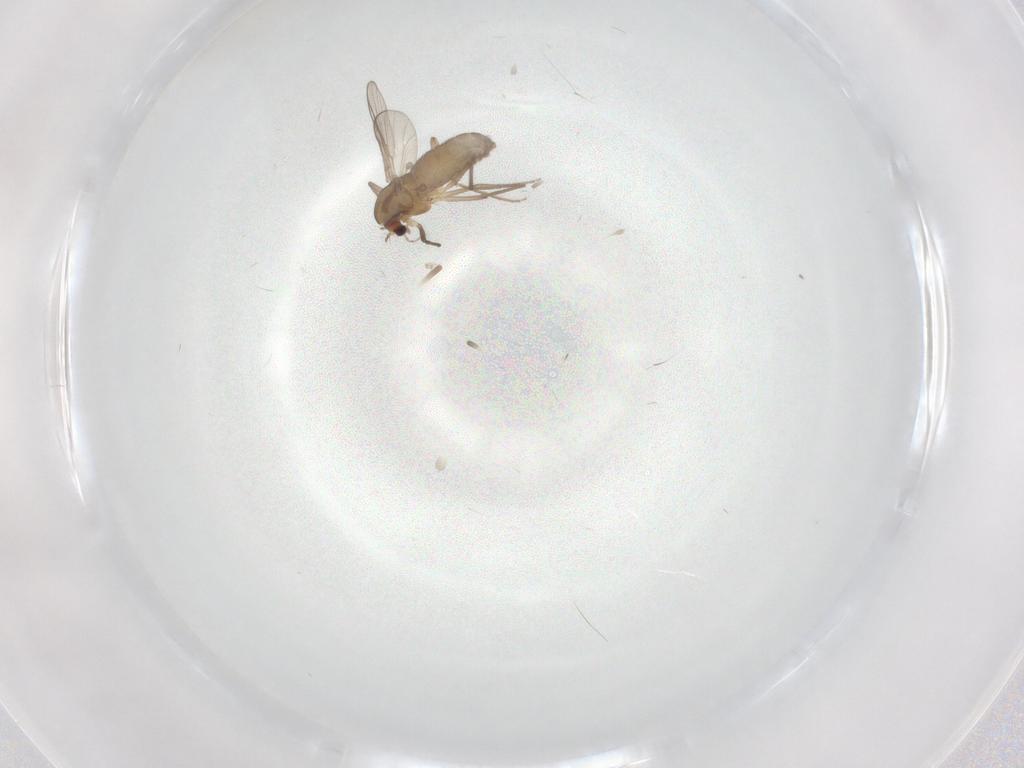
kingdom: Animalia
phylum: Arthropoda
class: Insecta
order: Diptera
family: Chironomidae
